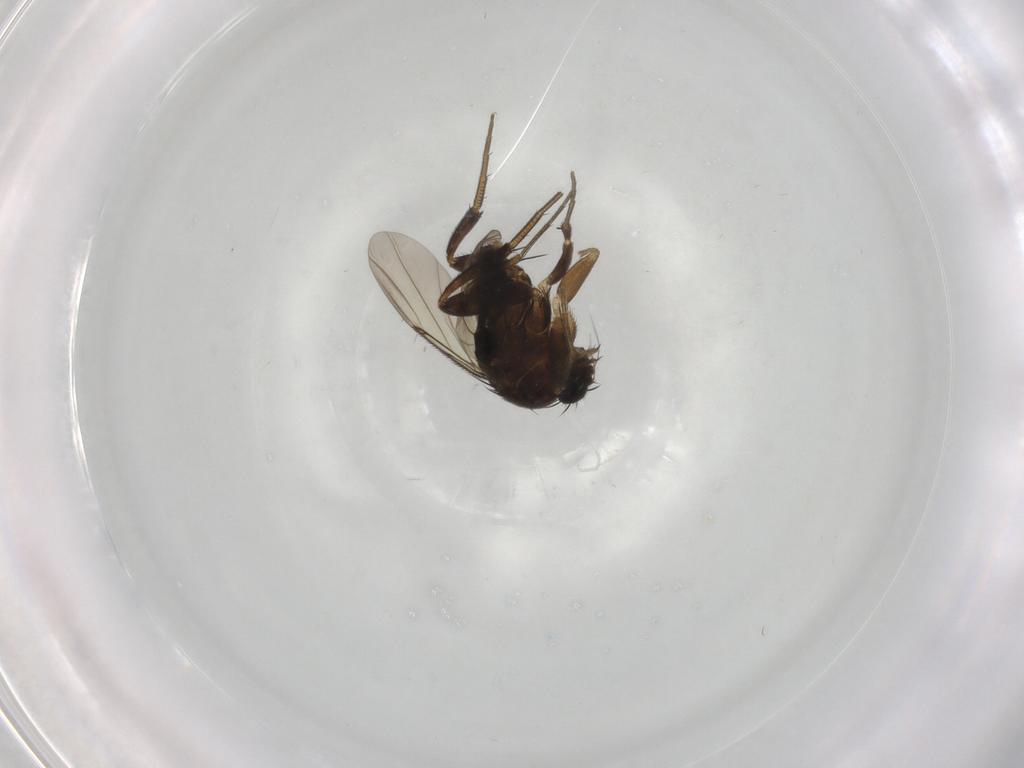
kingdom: Animalia
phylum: Arthropoda
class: Insecta
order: Diptera
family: Phoridae
